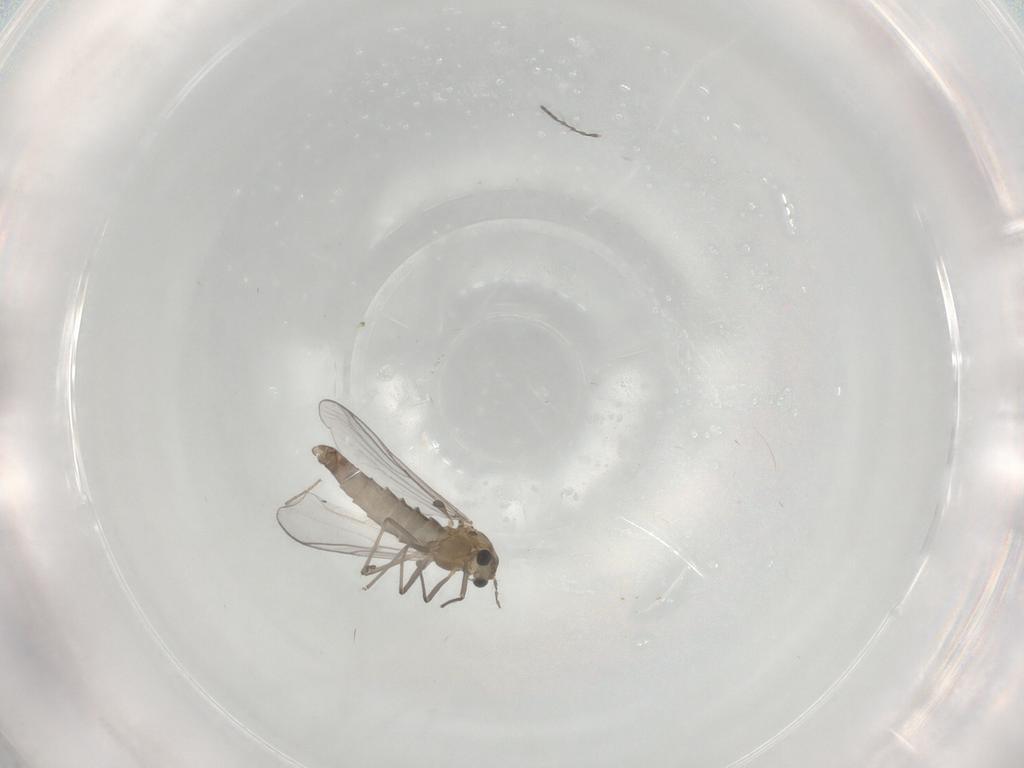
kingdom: Animalia
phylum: Arthropoda
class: Insecta
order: Diptera
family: Chironomidae
